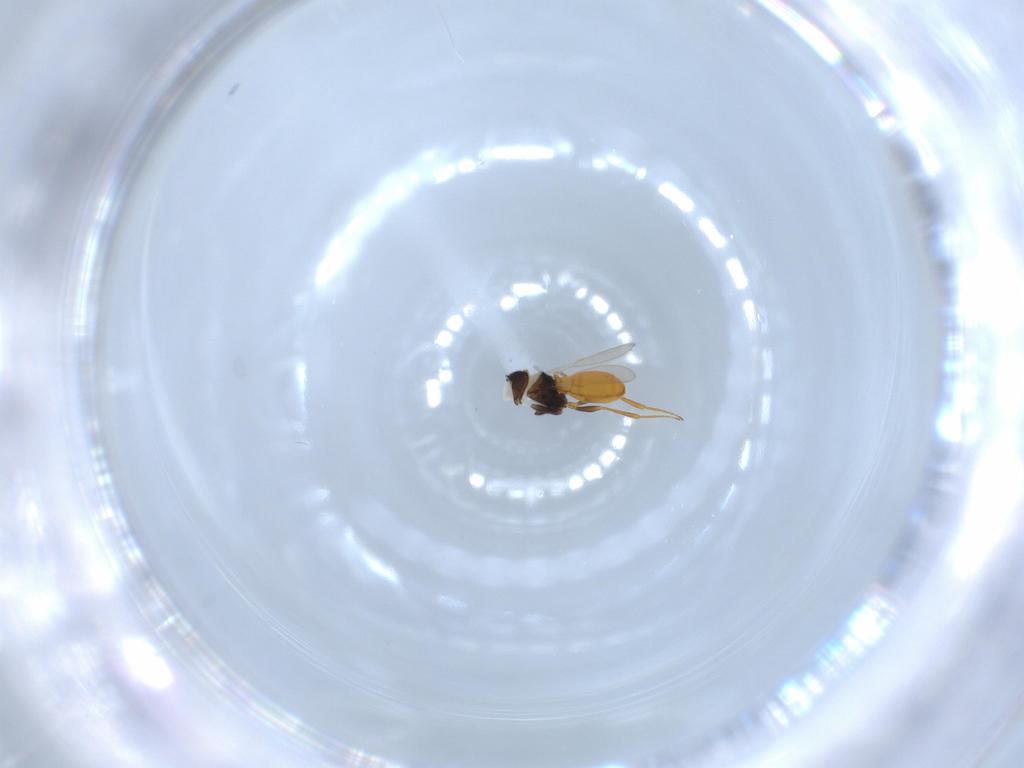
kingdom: Animalia
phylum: Arthropoda
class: Insecta
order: Hymenoptera
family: Scelionidae
